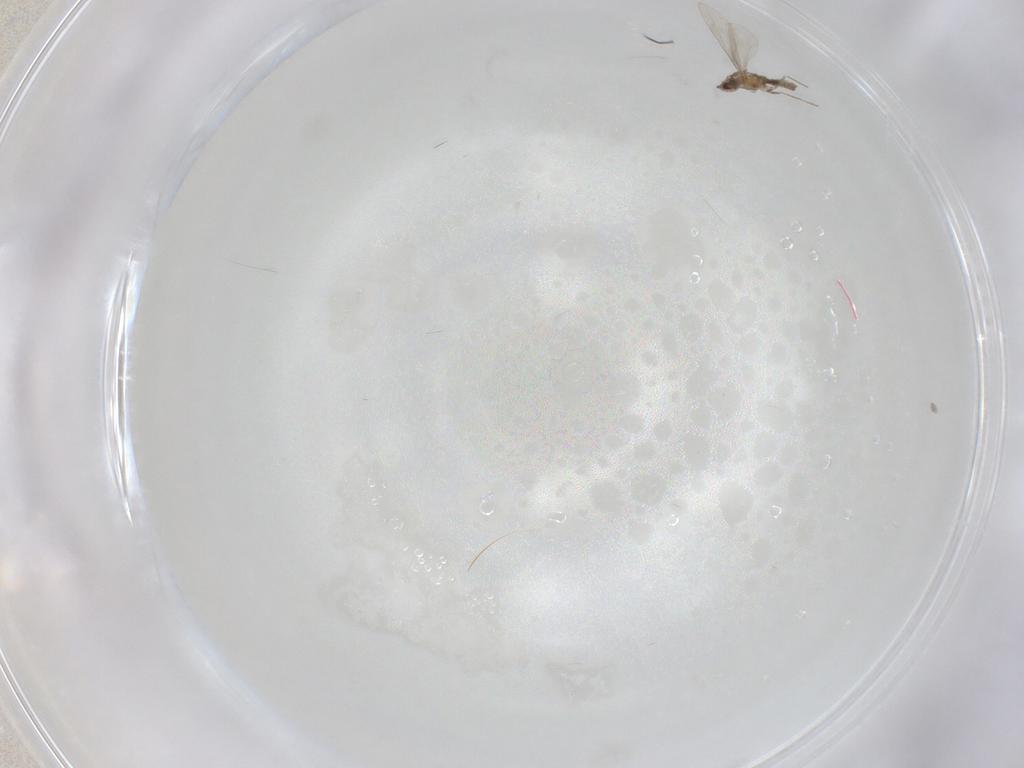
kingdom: Animalia
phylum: Arthropoda
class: Insecta
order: Diptera
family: Cecidomyiidae
